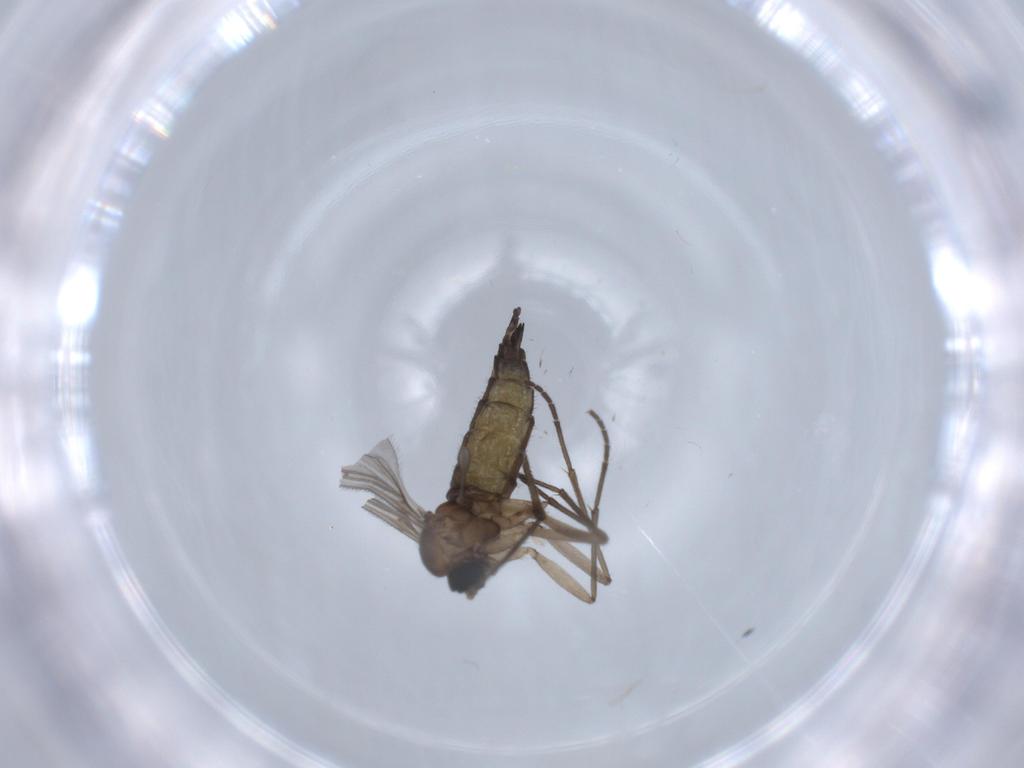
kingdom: Animalia
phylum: Arthropoda
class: Insecta
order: Diptera
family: Sciaridae
